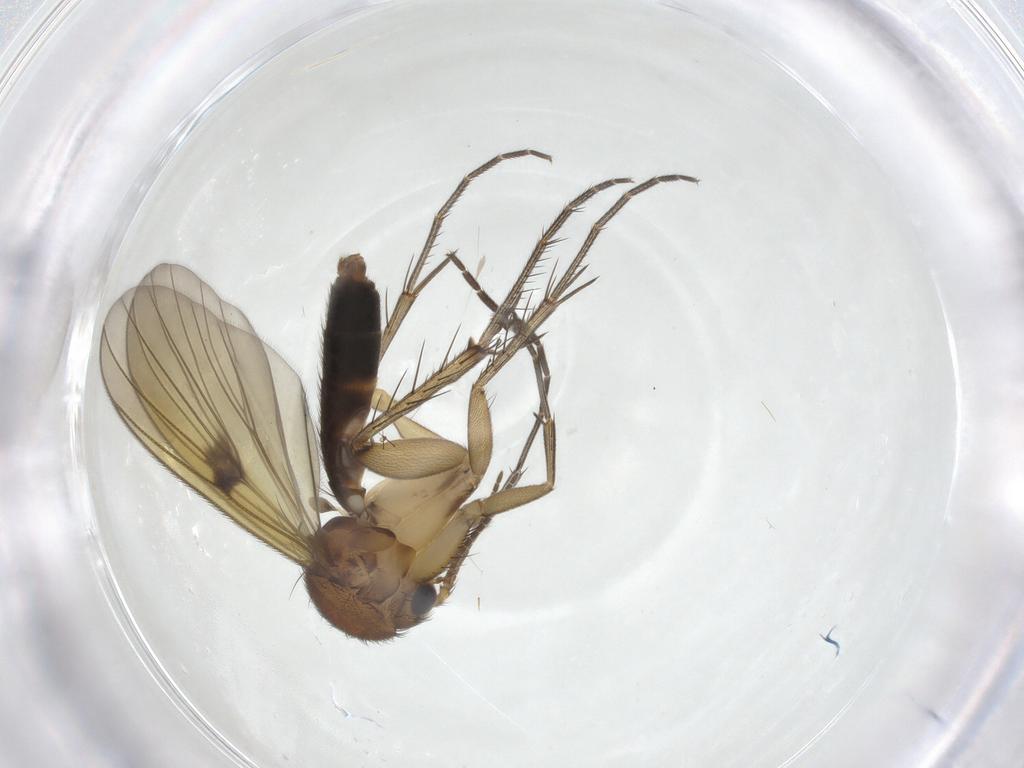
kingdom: Animalia
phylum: Arthropoda
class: Insecta
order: Diptera
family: Mycetophilidae
